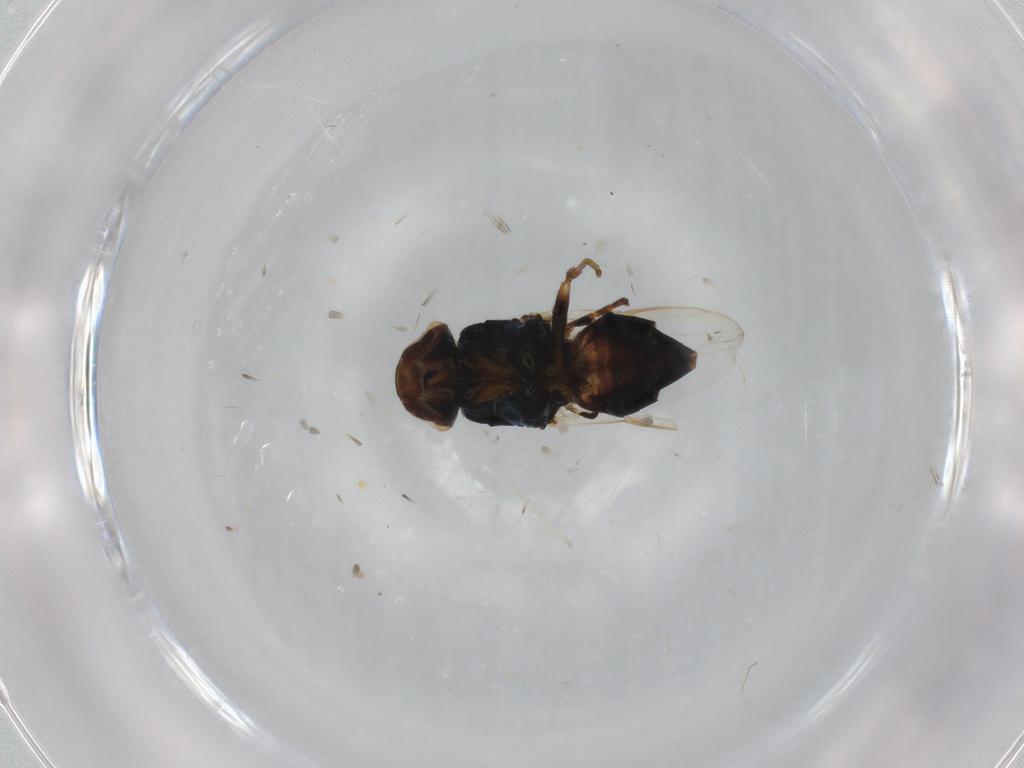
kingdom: Animalia
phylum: Arthropoda
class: Insecta
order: Diptera
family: Chloropidae
